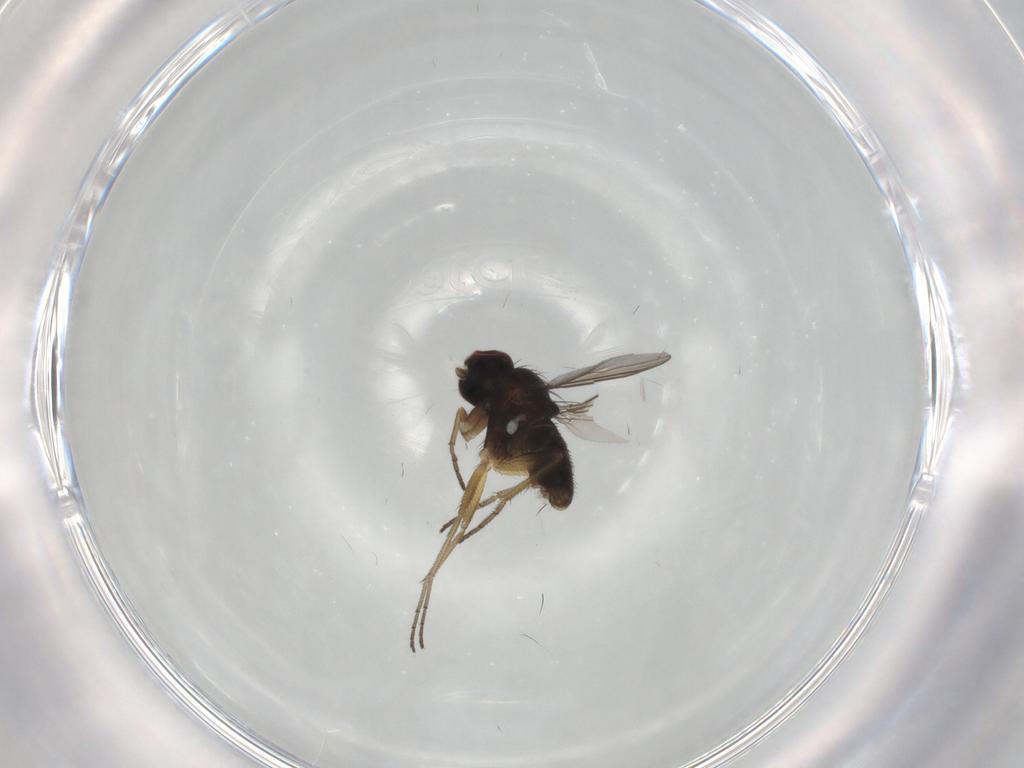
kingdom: Animalia
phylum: Arthropoda
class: Insecta
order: Diptera
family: Dolichopodidae
